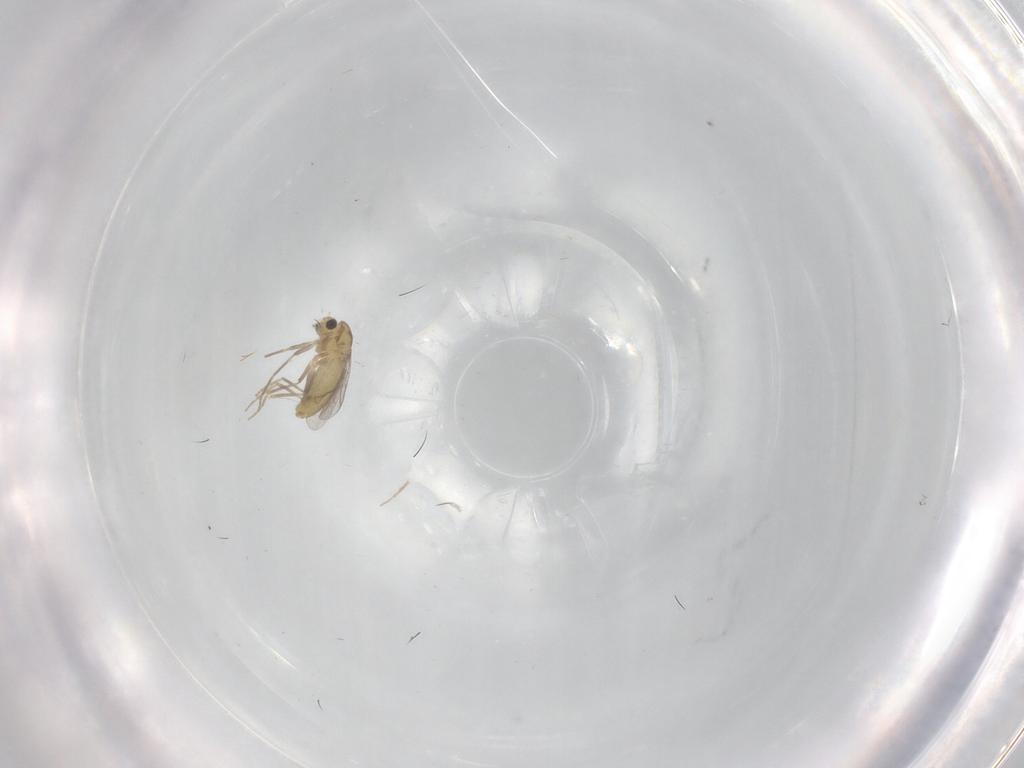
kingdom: Animalia
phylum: Arthropoda
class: Insecta
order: Diptera
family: Chironomidae
